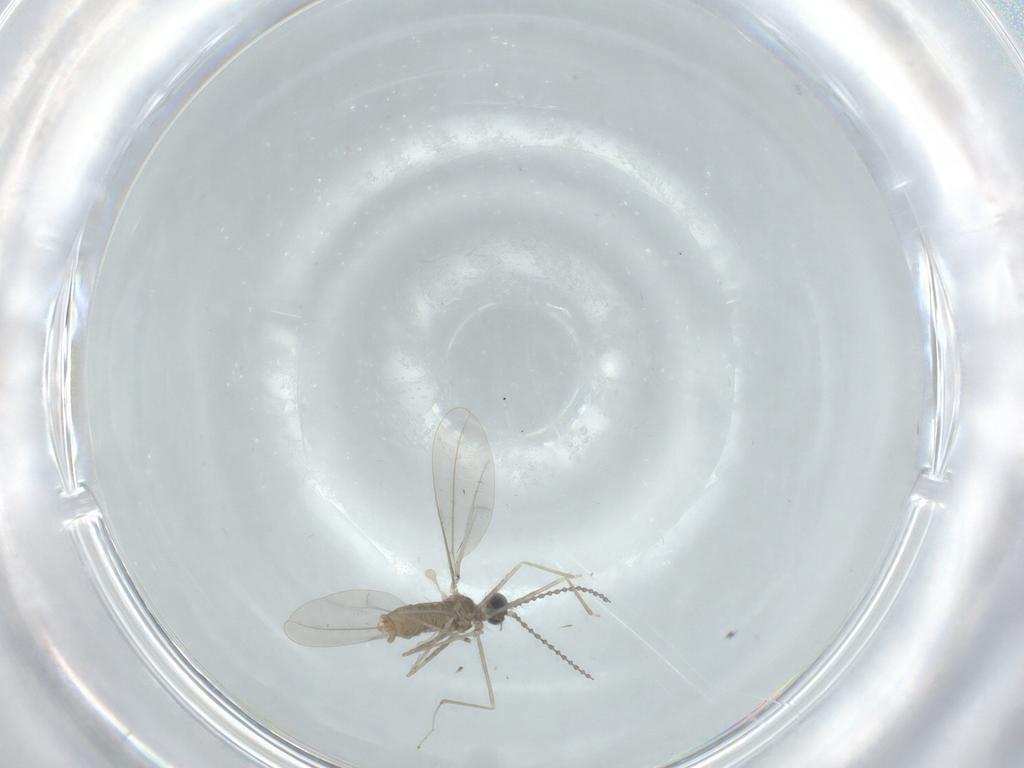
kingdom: Animalia
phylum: Arthropoda
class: Insecta
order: Diptera
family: Cecidomyiidae
